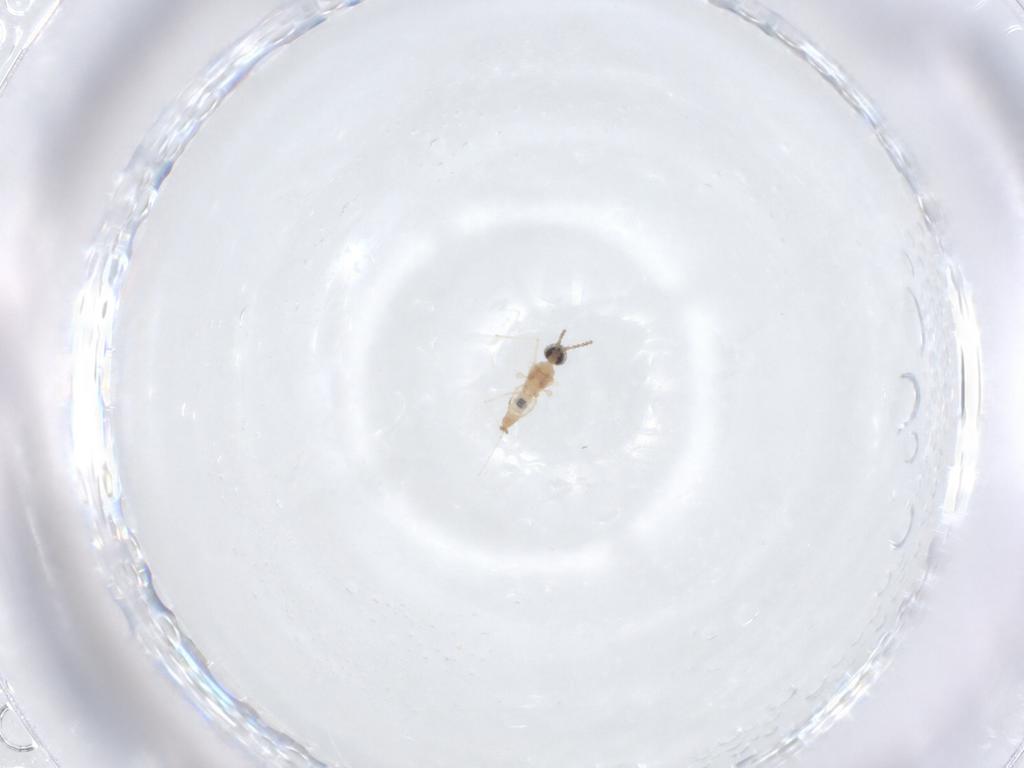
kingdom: Animalia
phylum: Arthropoda
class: Insecta
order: Diptera
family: Cecidomyiidae
